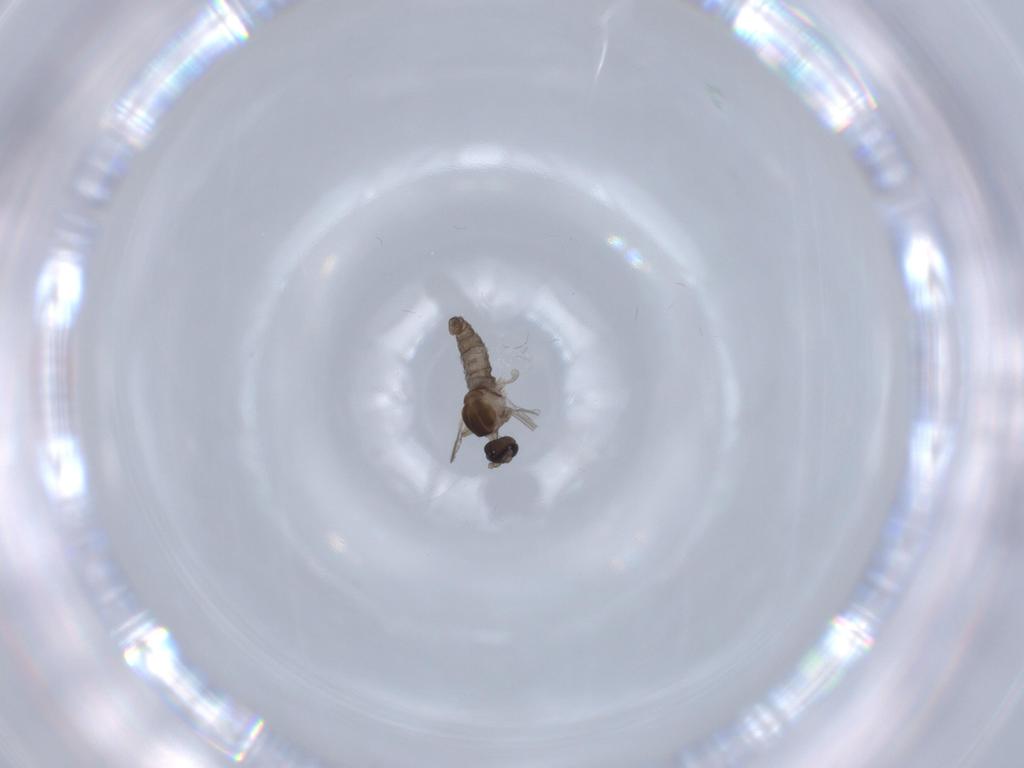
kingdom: Animalia
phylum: Arthropoda
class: Insecta
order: Diptera
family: Cecidomyiidae
